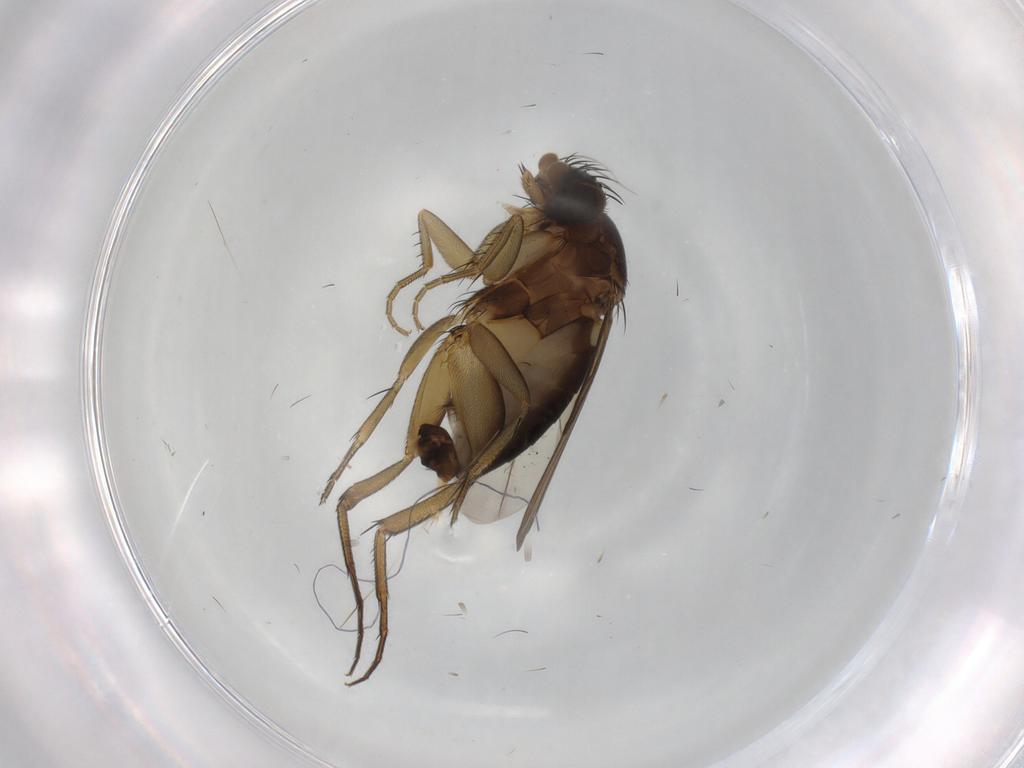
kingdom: Animalia
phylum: Arthropoda
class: Insecta
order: Diptera
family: Phoridae
